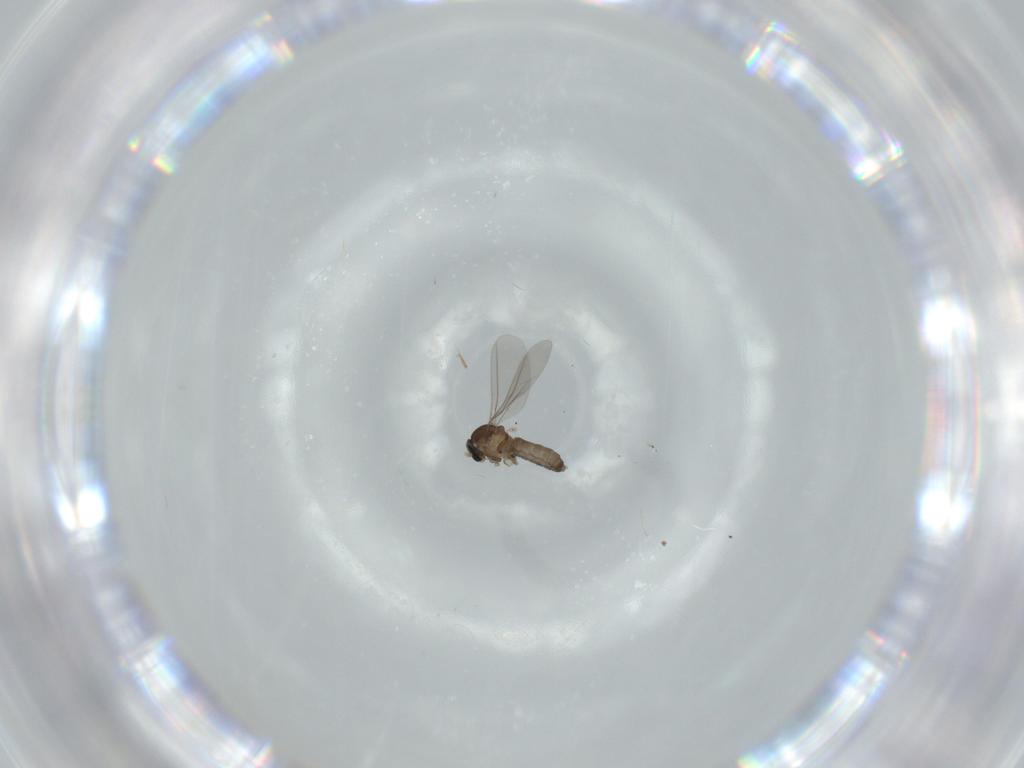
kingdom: Animalia
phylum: Arthropoda
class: Insecta
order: Diptera
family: Cecidomyiidae
